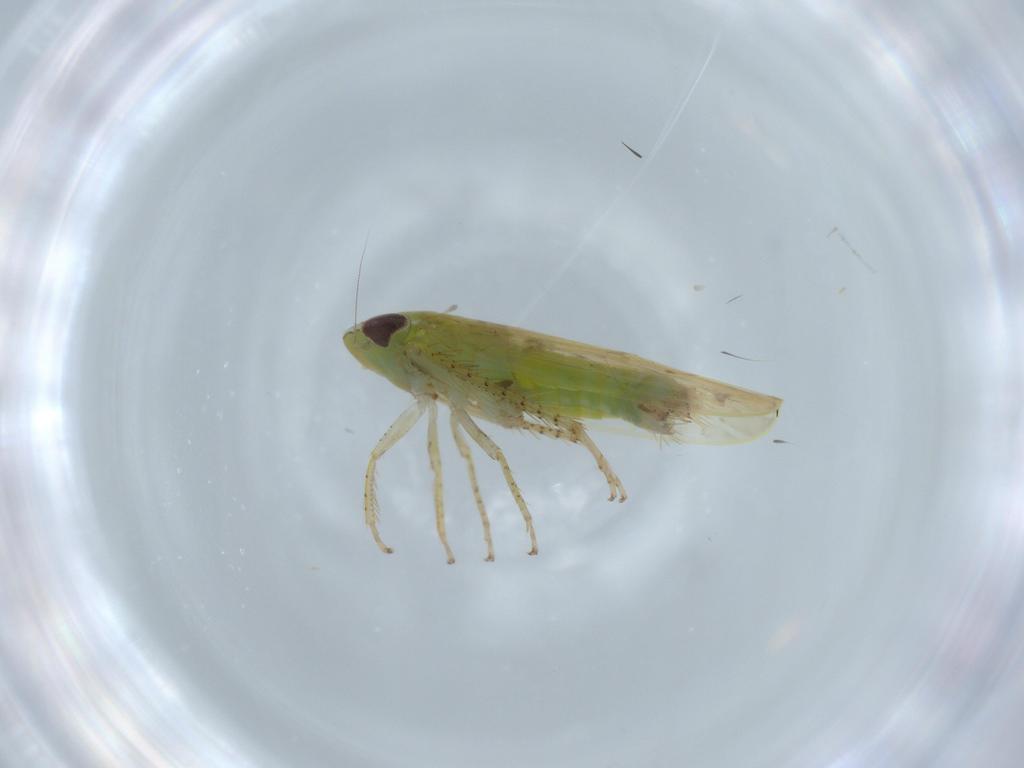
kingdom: Animalia
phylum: Arthropoda
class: Insecta
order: Hemiptera
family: Cicadellidae
